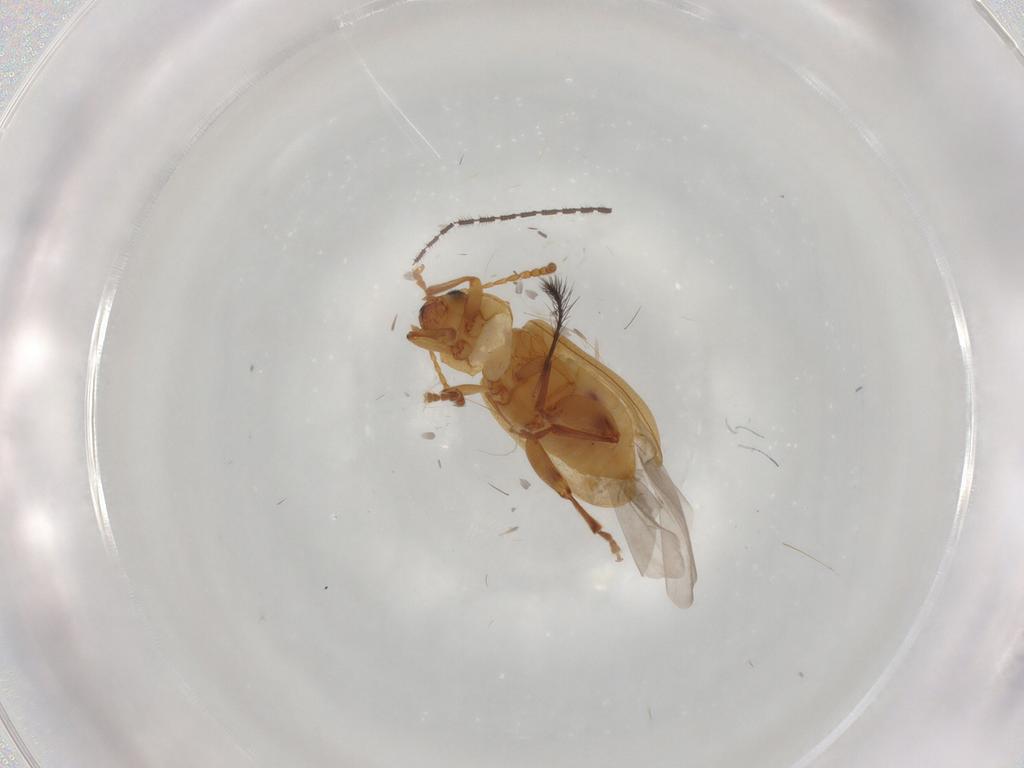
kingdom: Animalia
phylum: Arthropoda
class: Insecta
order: Coleoptera
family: Chrysomelidae
